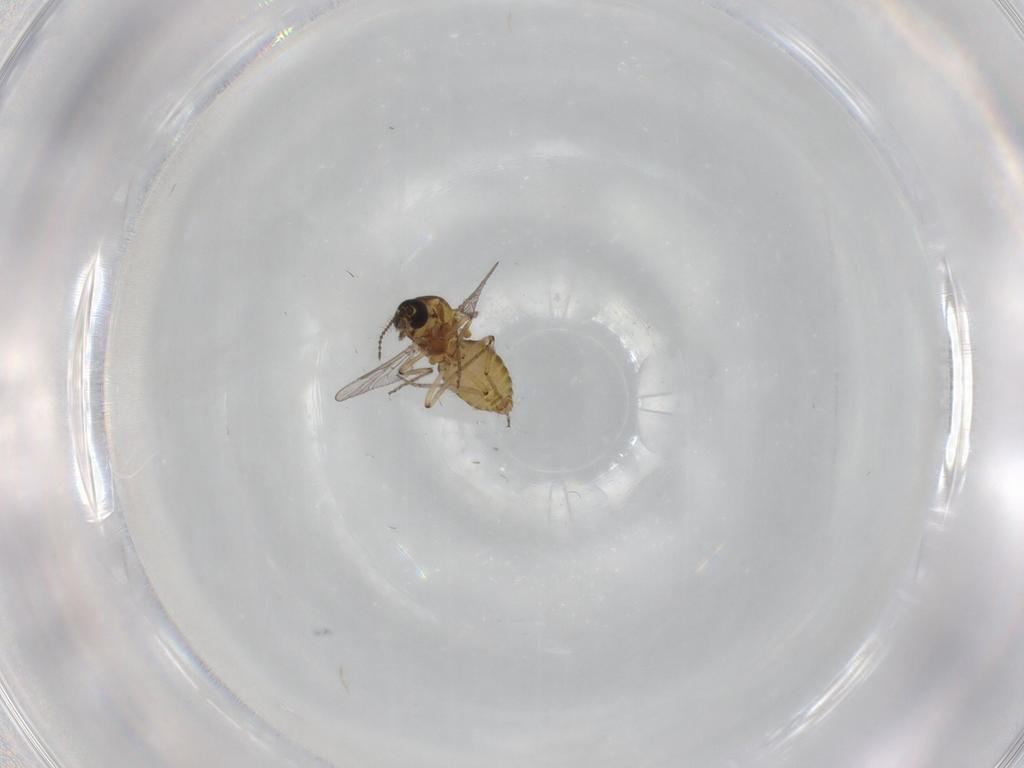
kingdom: Animalia
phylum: Arthropoda
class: Insecta
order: Diptera
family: Ceratopogonidae
